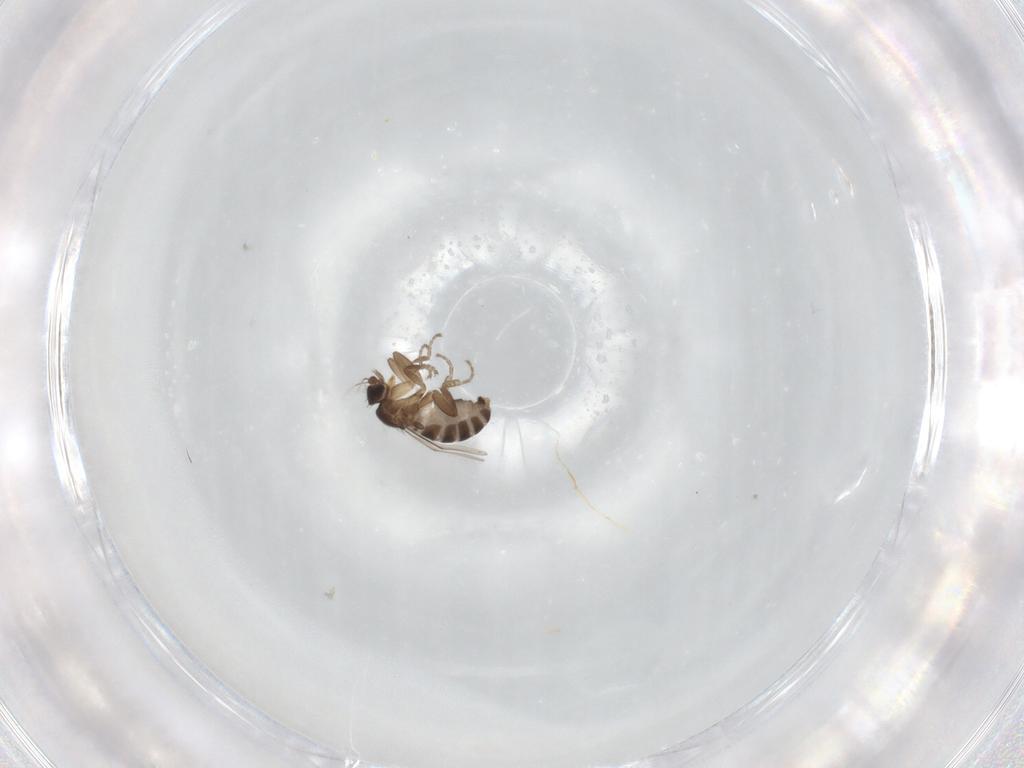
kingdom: Animalia
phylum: Arthropoda
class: Insecta
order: Diptera
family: Phoridae
